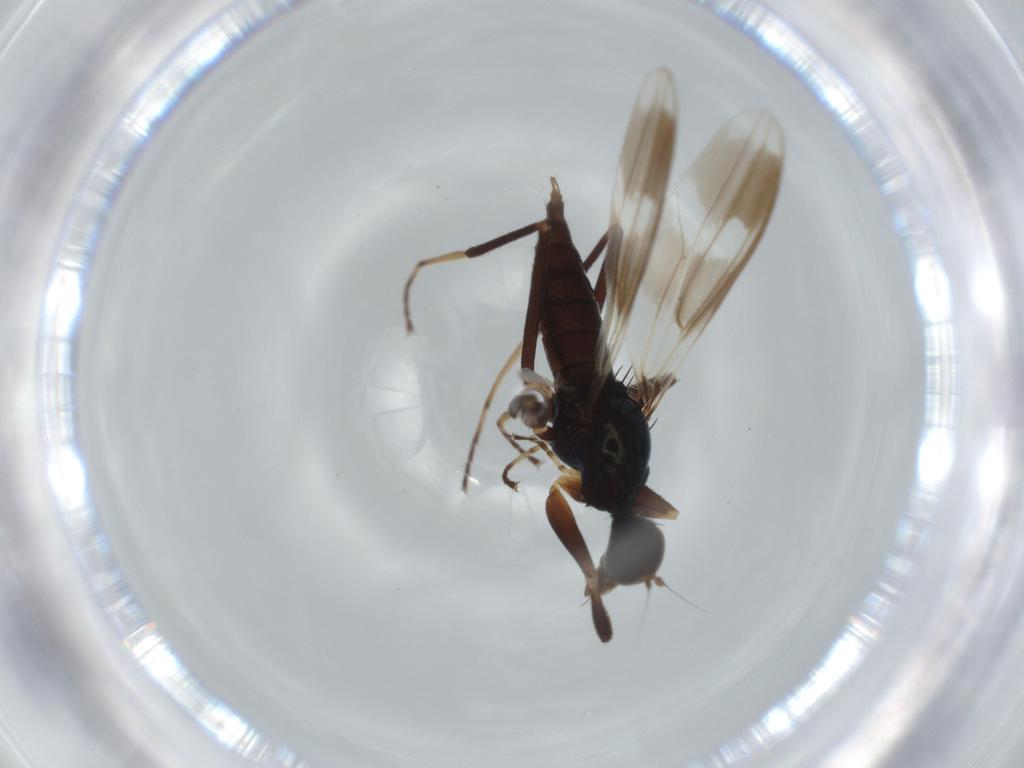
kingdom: Animalia
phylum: Arthropoda
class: Insecta
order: Diptera
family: Hybotidae
